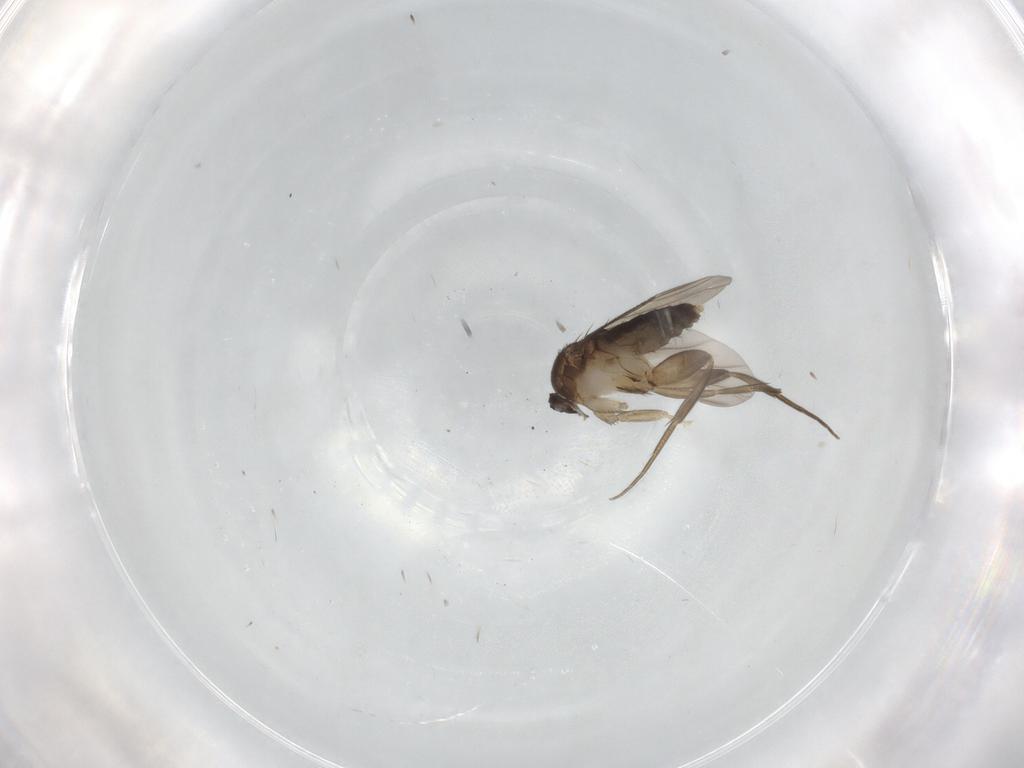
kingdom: Animalia
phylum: Arthropoda
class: Insecta
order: Diptera
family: Phoridae
